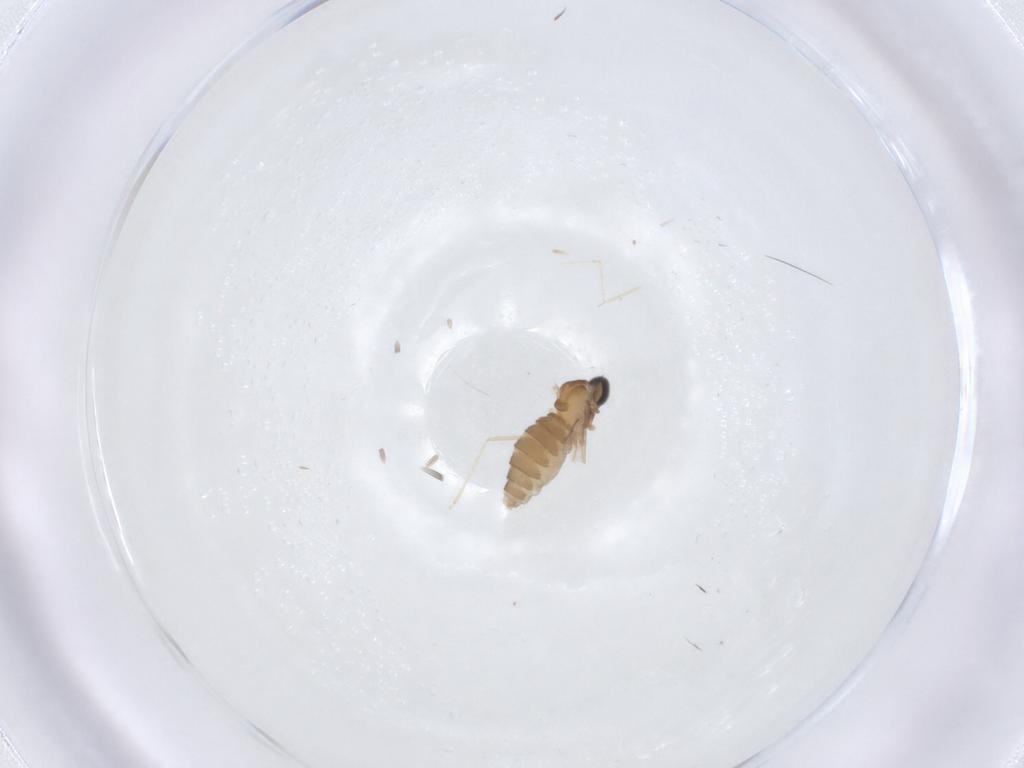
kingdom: Animalia
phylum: Arthropoda
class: Insecta
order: Diptera
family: Cecidomyiidae
